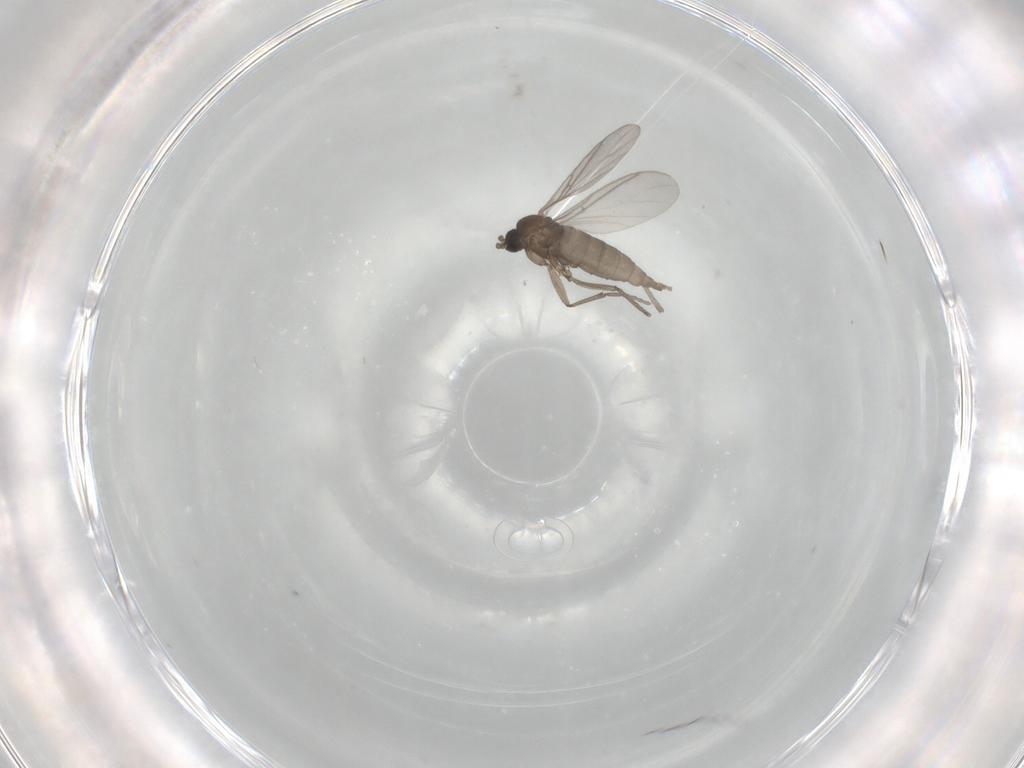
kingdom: Animalia
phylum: Arthropoda
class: Insecta
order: Diptera
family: Sciaridae
